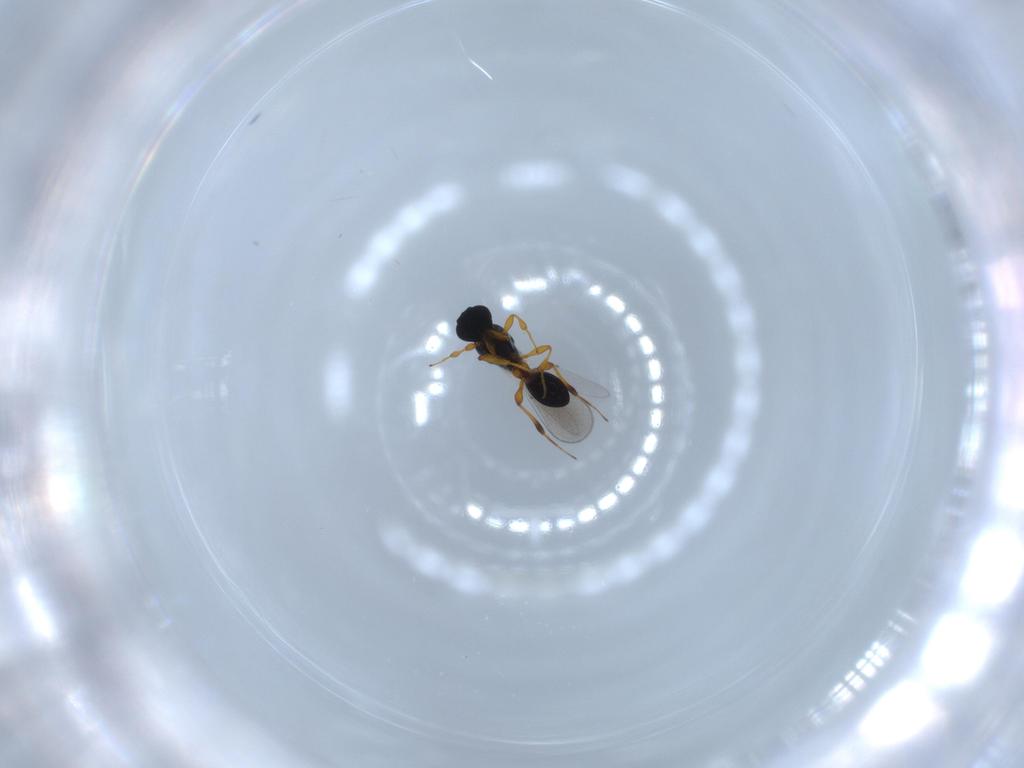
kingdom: Animalia
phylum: Arthropoda
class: Insecta
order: Hymenoptera
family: Platygastridae
